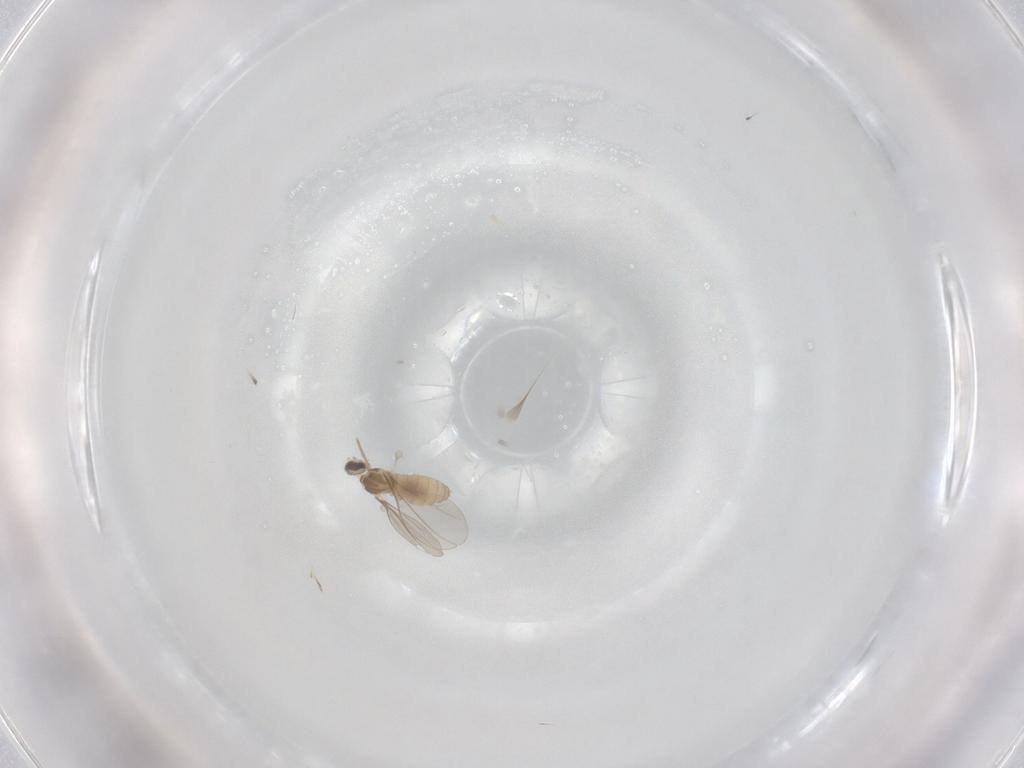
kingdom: Animalia
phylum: Arthropoda
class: Insecta
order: Diptera
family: Cecidomyiidae
